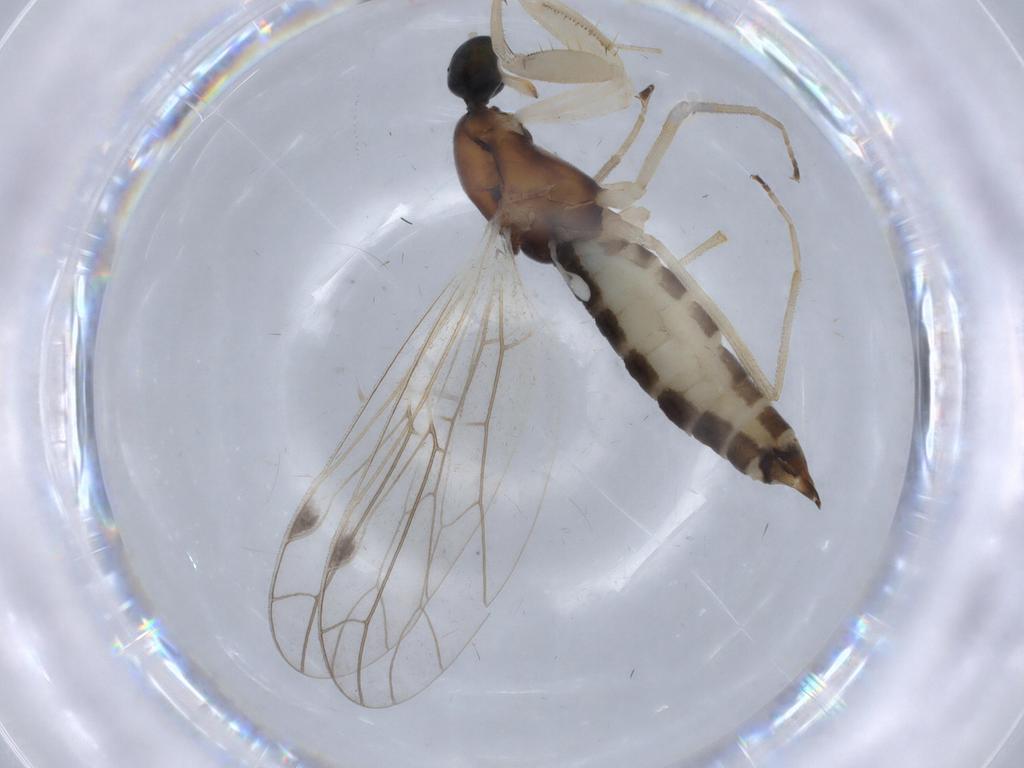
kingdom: Animalia
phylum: Arthropoda
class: Insecta
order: Diptera
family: Empididae
